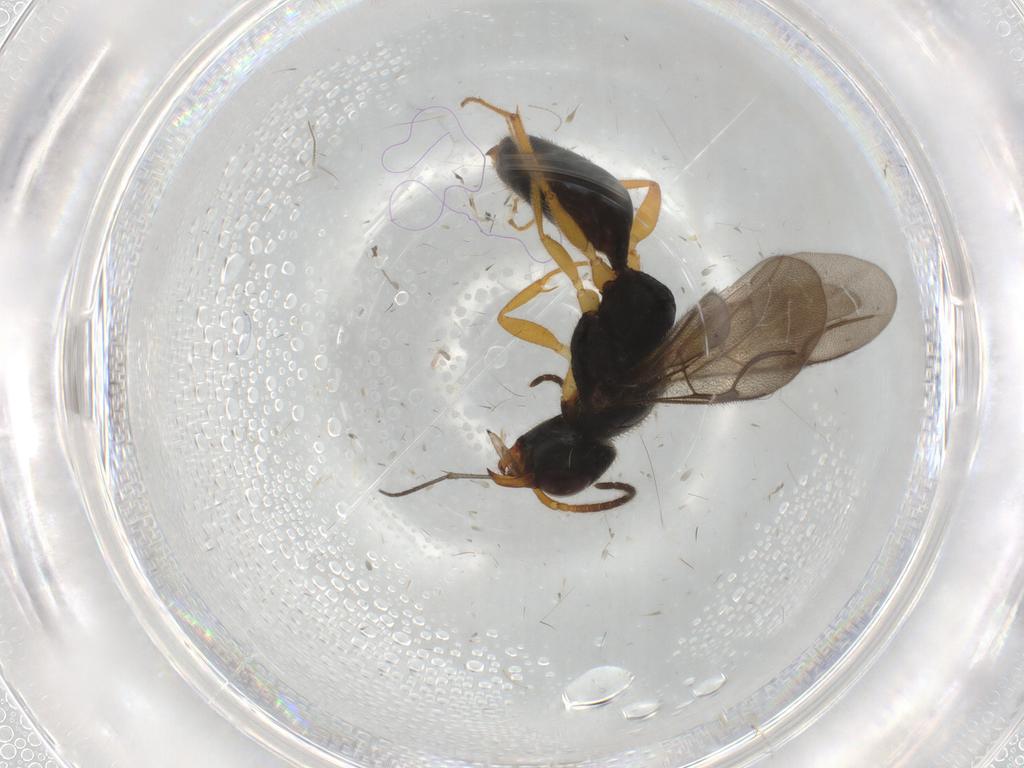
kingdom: Animalia
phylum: Arthropoda
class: Insecta
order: Hymenoptera
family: Bethylidae
